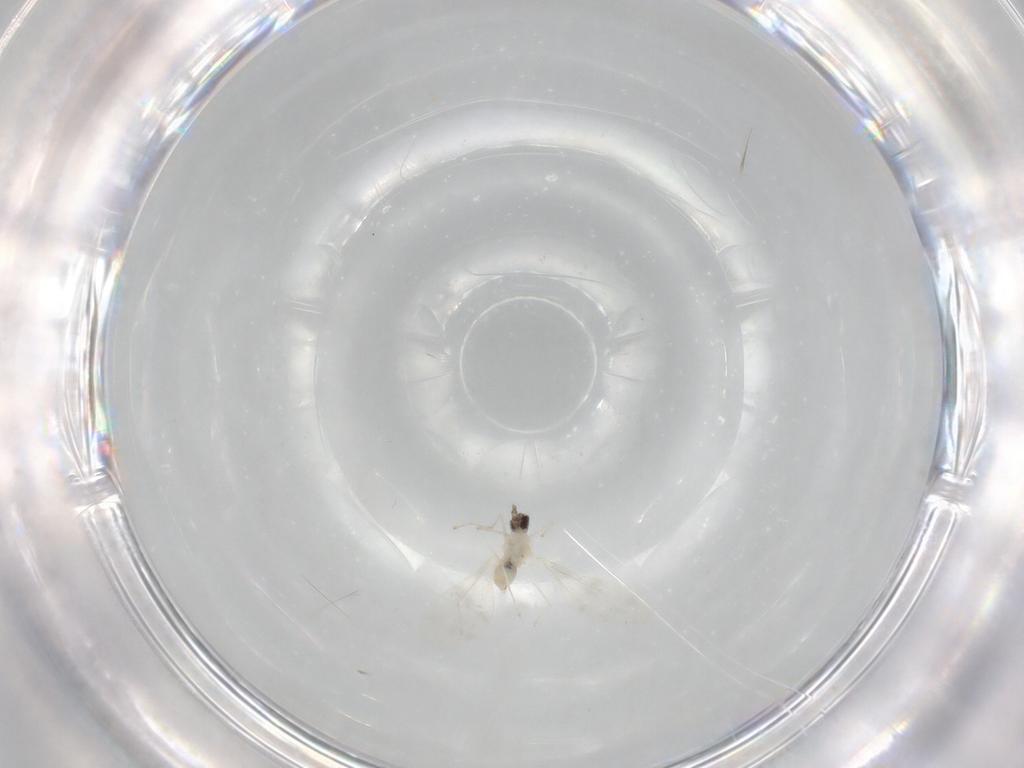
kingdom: Animalia
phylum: Arthropoda
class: Insecta
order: Diptera
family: Cecidomyiidae
